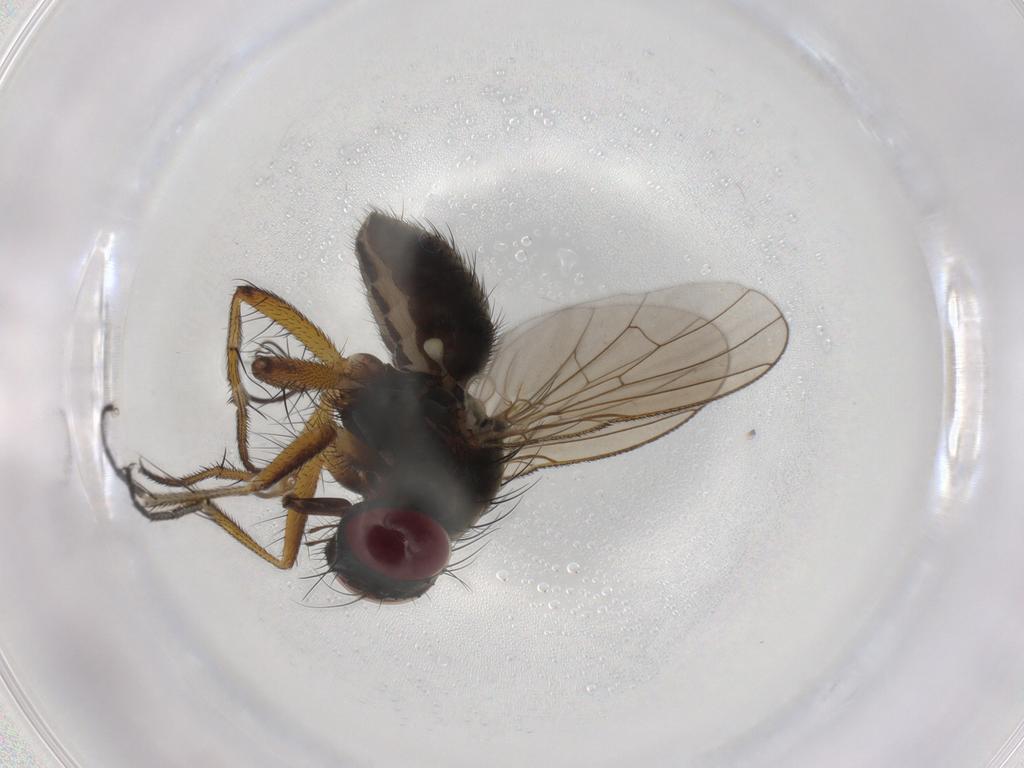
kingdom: Animalia
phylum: Arthropoda
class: Insecta
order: Diptera
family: Muscidae
